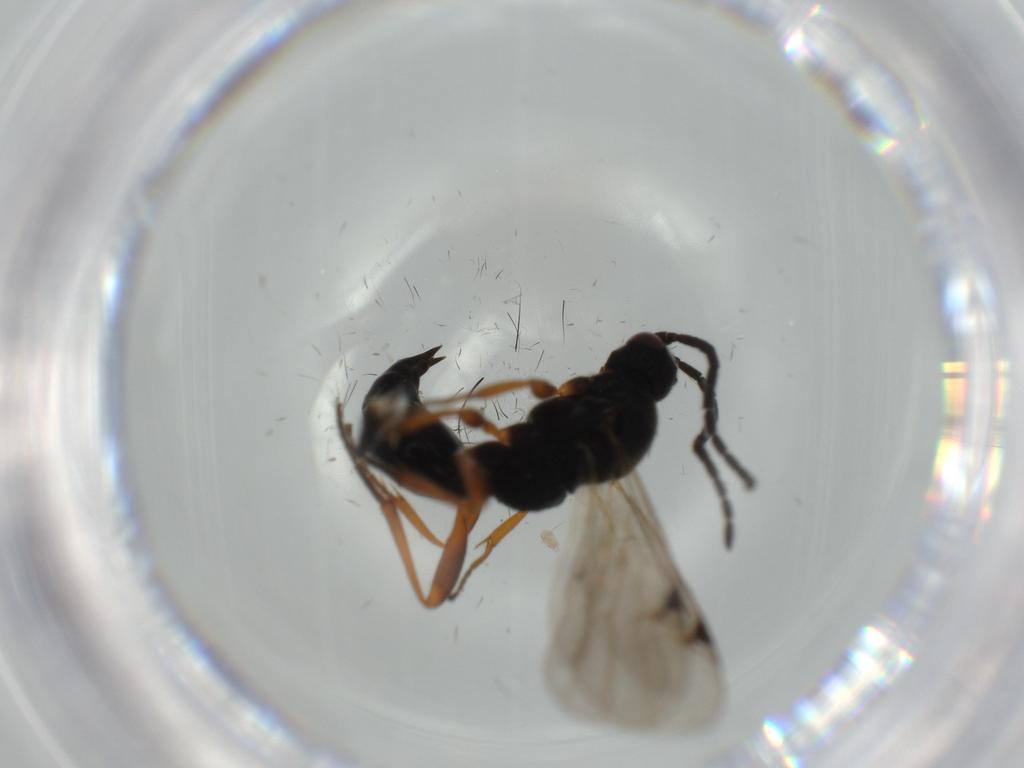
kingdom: Animalia
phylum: Arthropoda
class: Insecta
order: Hymenoptera
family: Proctotrupidae
